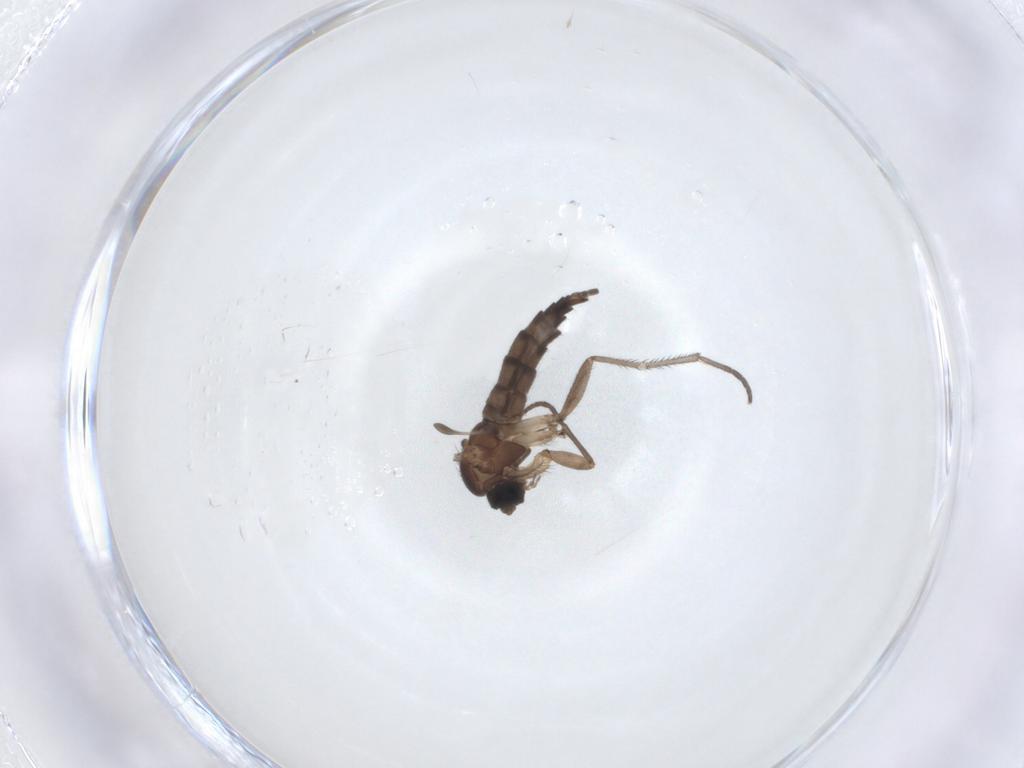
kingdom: Animalia
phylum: Arthropoda
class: Insecta
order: Diptera
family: Sciaridae
